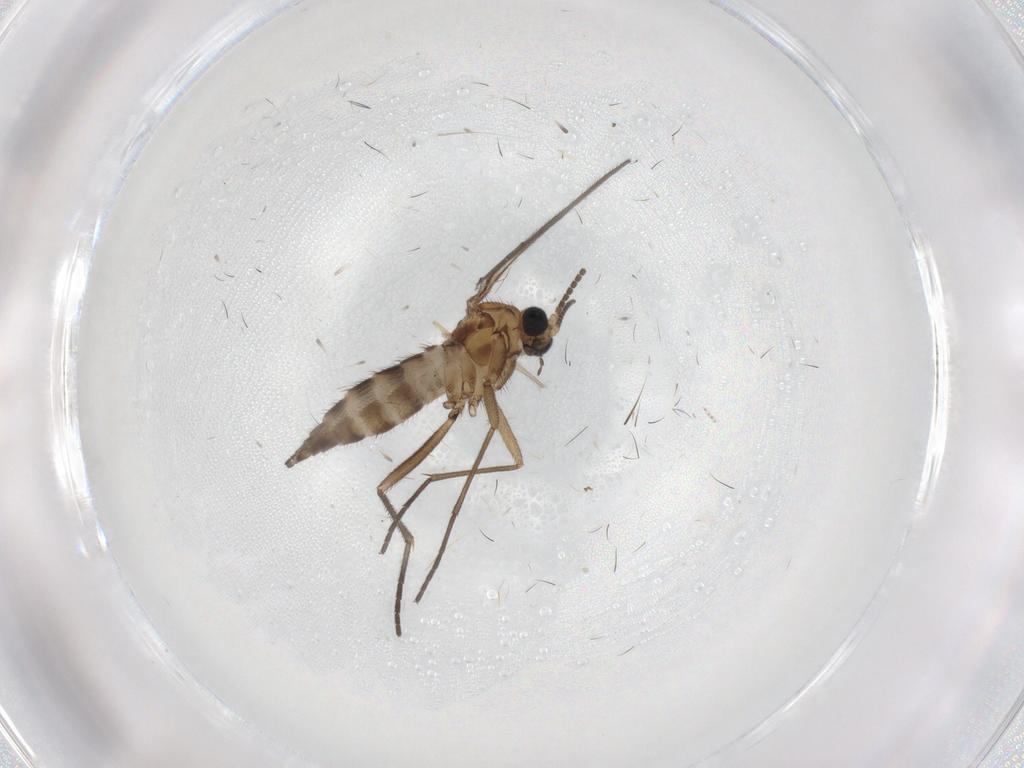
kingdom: Animalia
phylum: Arthropoda
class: Insecta
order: Diptera
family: Sciaridae
